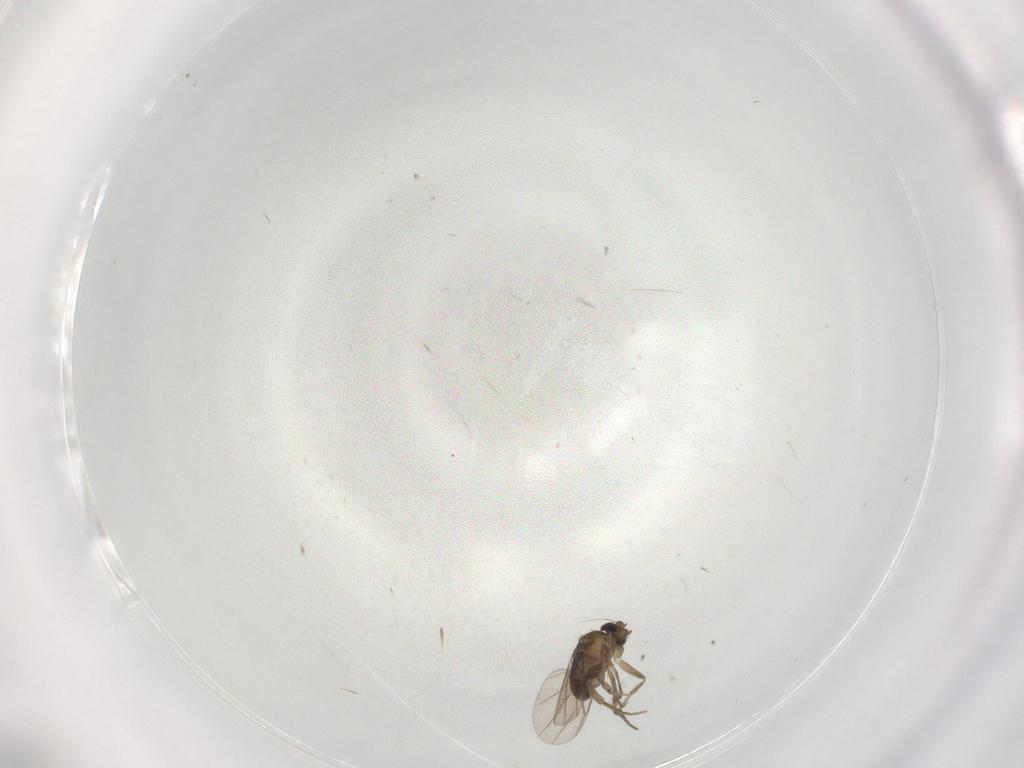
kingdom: Animalia
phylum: Arthropoda
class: Insecta
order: Diptera
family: Phoridae
